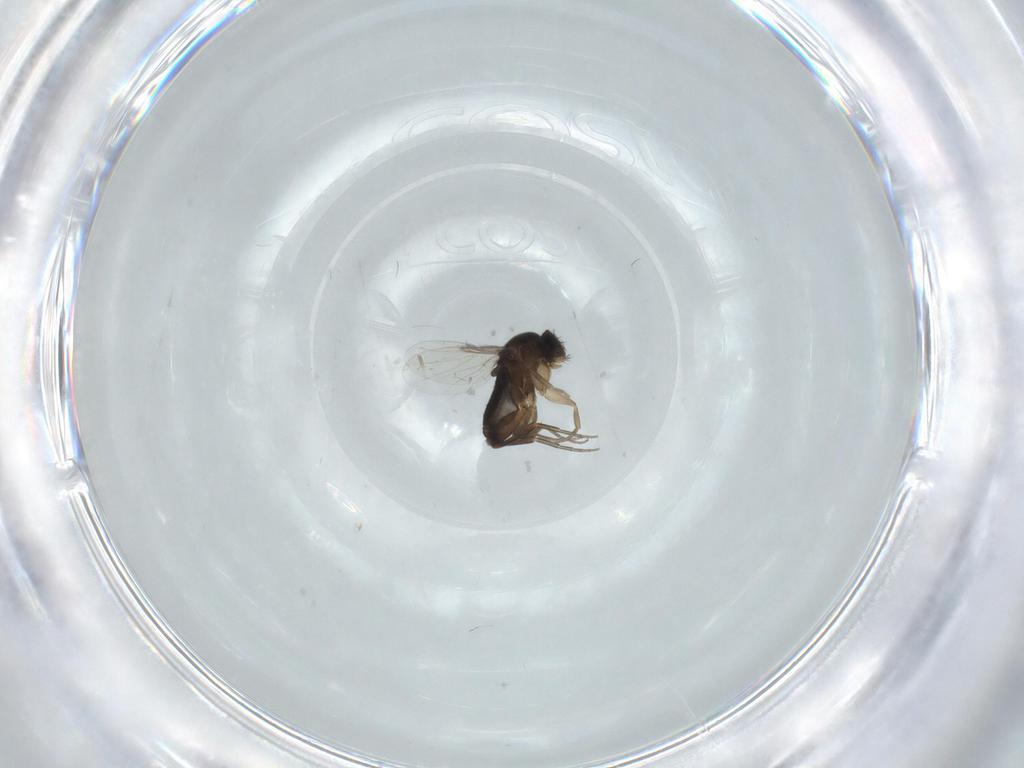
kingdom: Animalia
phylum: Arthropoda
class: Insecta
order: Diptera
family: Phoridae
